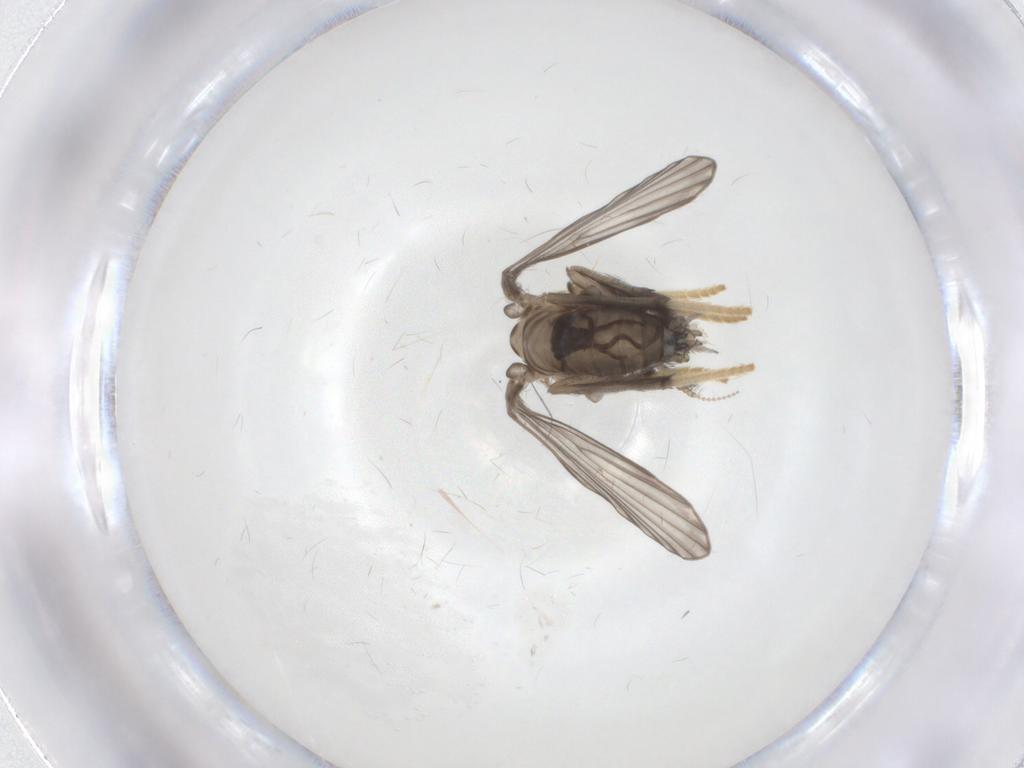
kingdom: Animalia
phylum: Arthropoda
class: Insecta
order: Diptera
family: Psychodidae
